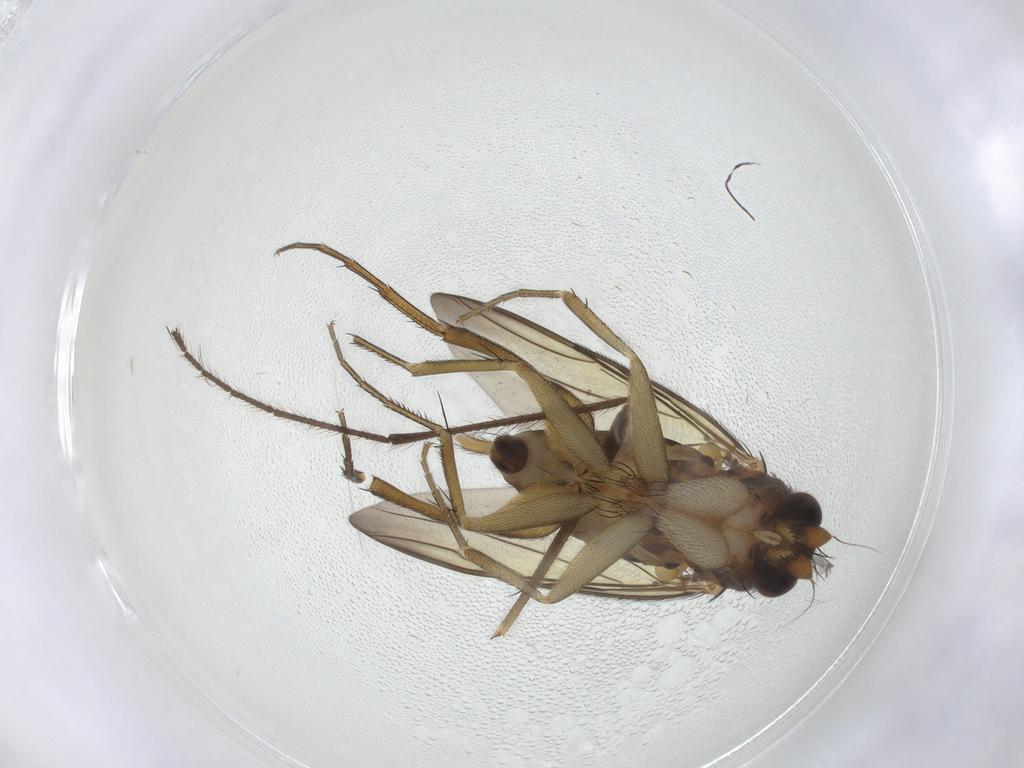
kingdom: Animalia
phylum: Arthropoda
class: Insecta
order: Diptera
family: Phoridae
